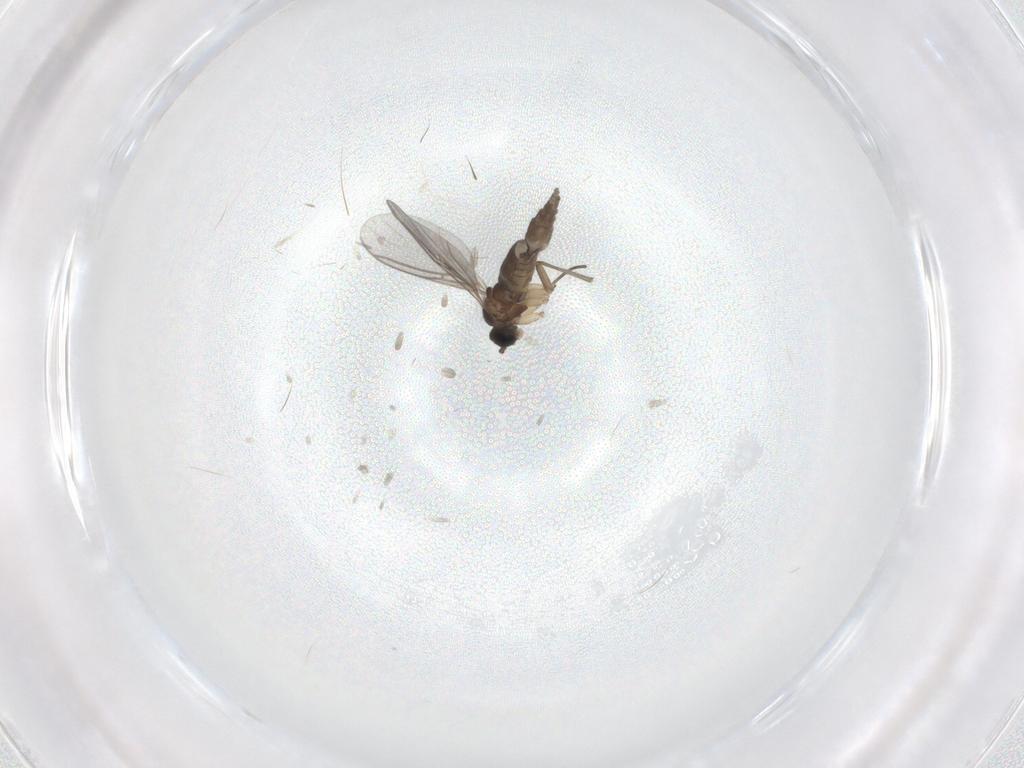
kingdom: Animalia
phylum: Arthropoda
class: Insecta
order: Diptera
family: Sciaridae
